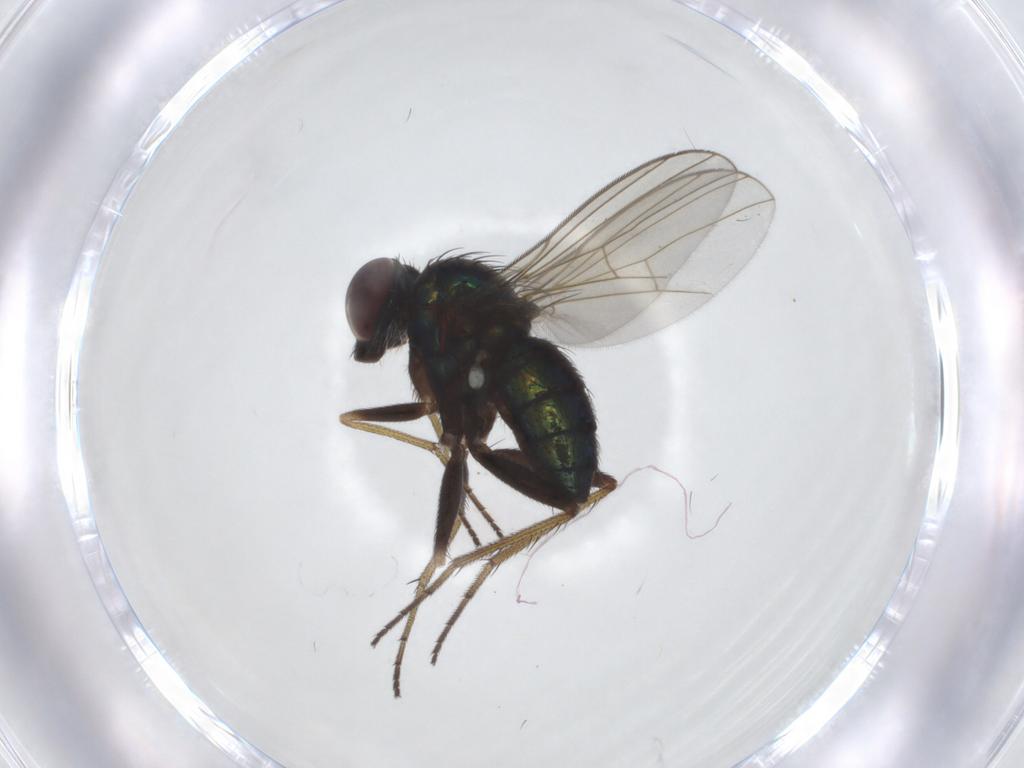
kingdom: Animalia
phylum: Arthropoda
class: Insecta
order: Diptera
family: Dolichopodidae
